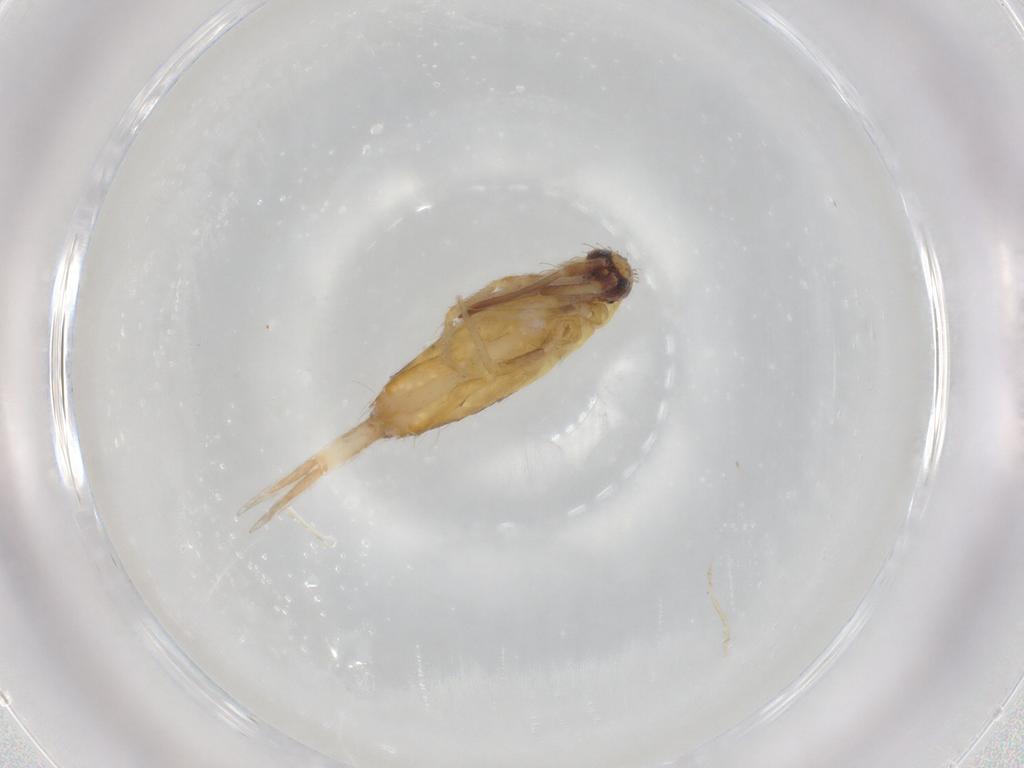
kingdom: Animalia
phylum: Arthropoda
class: Collembola
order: Entomobryomorpha
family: Entomobryidae
